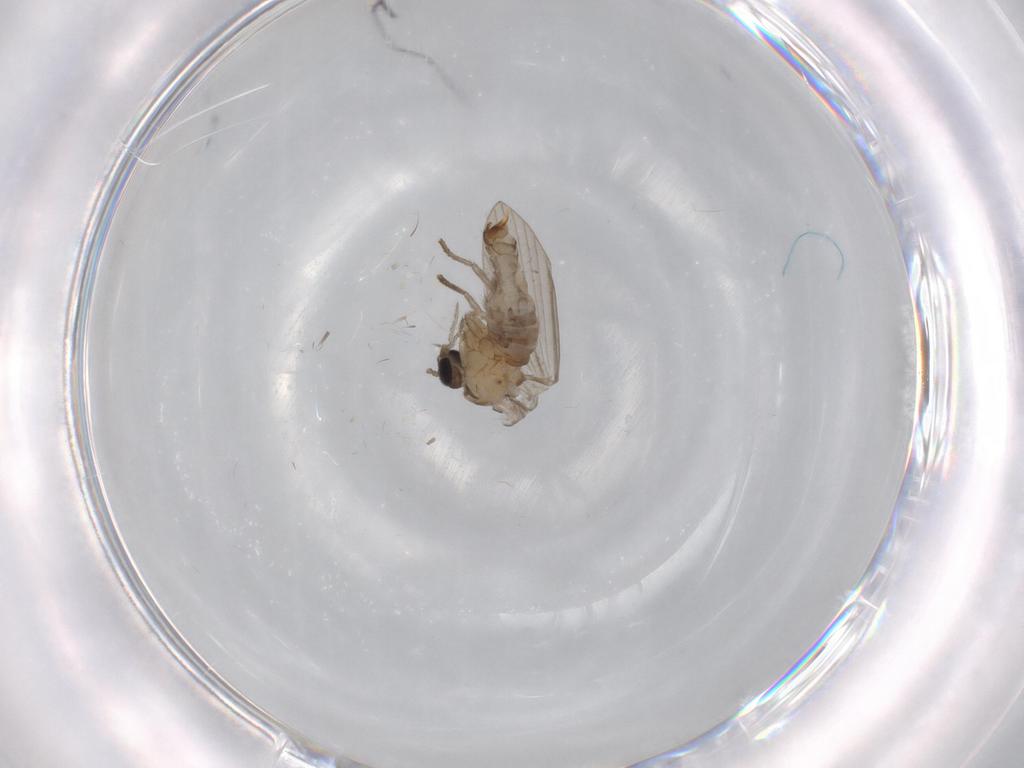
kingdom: Animalia
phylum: Arthropoda
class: Insecta
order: Diptera
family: Psychodidae
